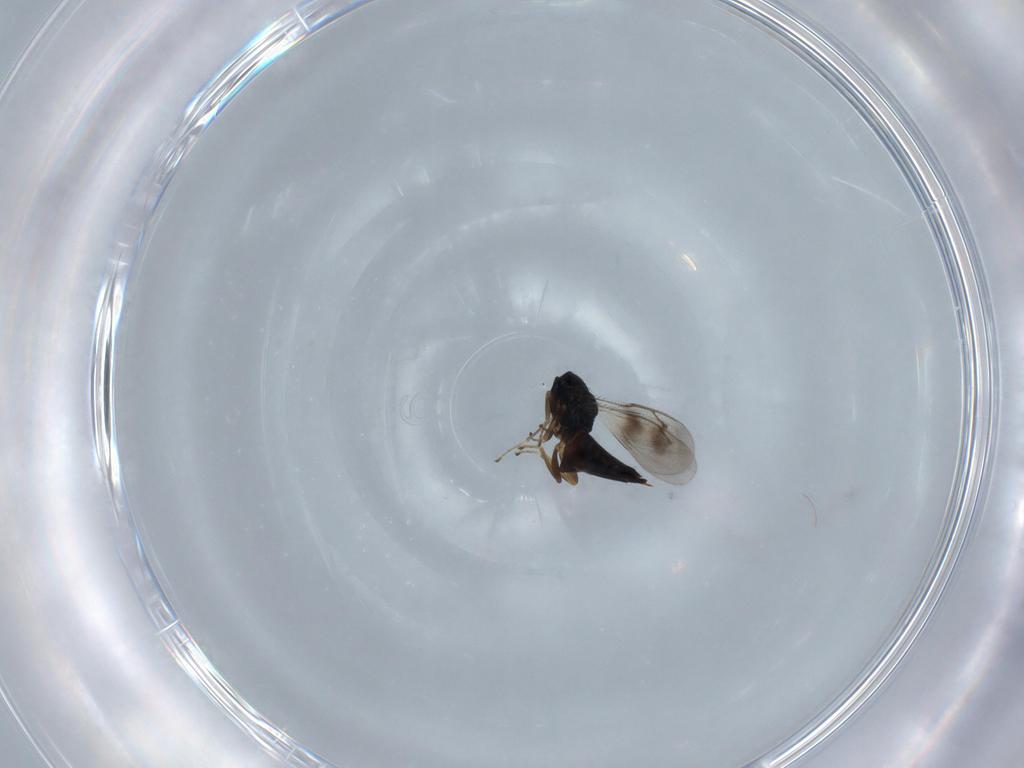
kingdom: Animalia
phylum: Arthropoda
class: Insecta
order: Hymenoptera
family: Pteromalidae
